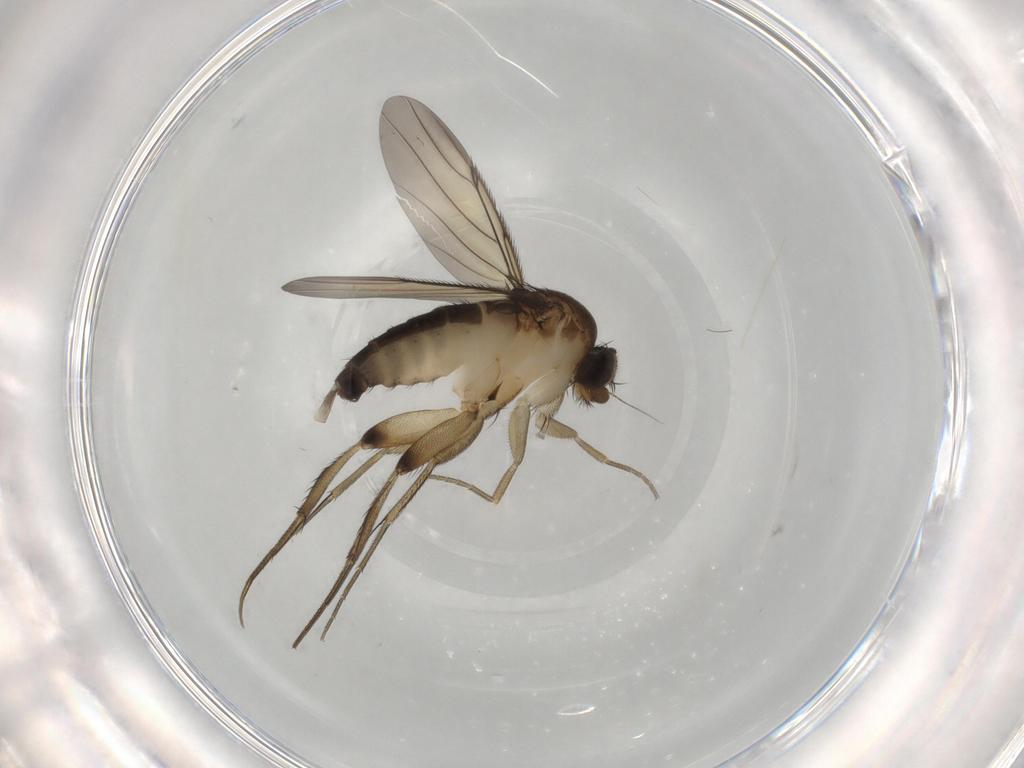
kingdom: Animalia
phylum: Arthropoda
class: Insecta
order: Diptera
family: Phoridae
